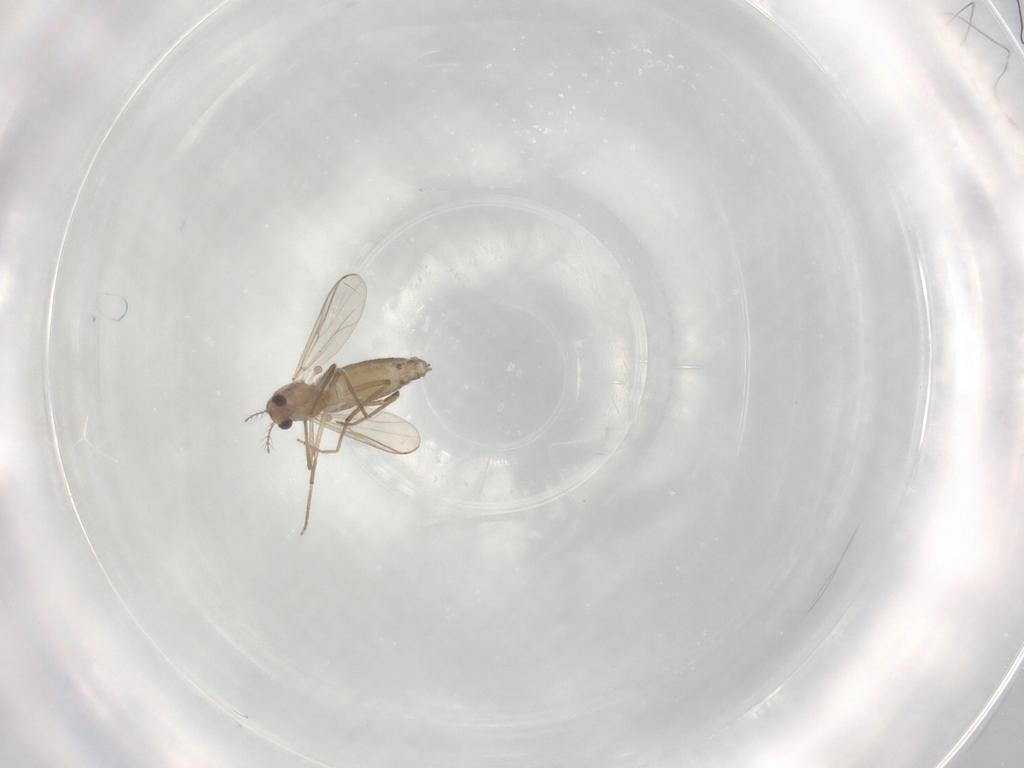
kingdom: Animalia
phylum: Arthropoda
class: Insecta
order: Diptera
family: Chironomidae
